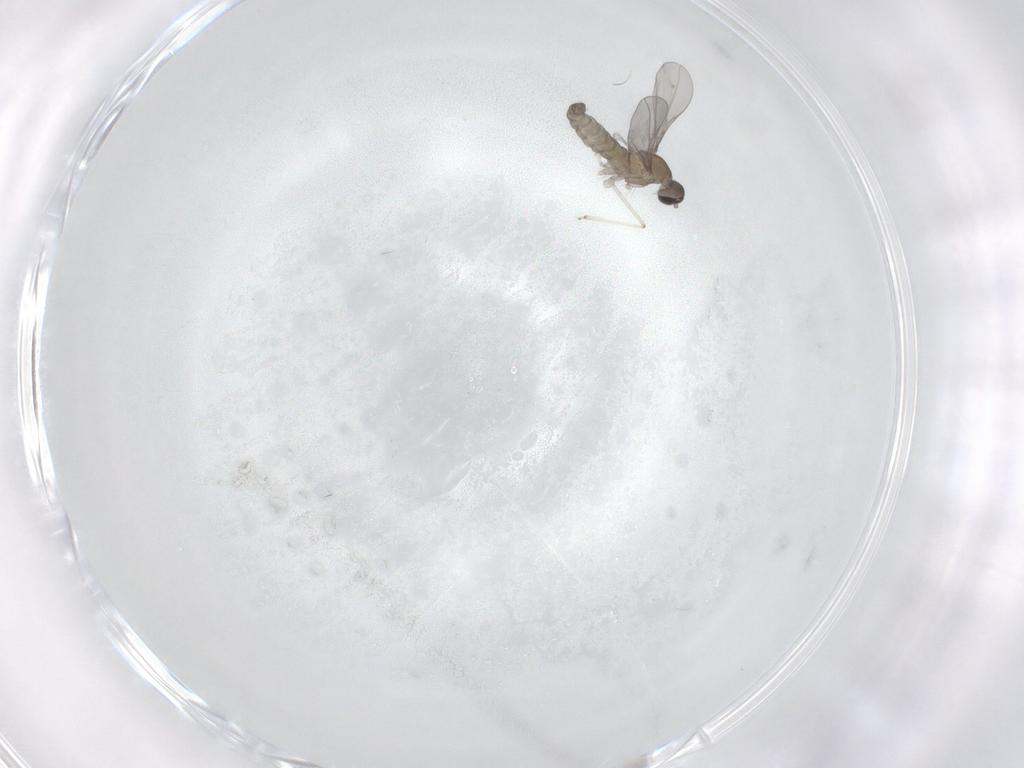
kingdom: Animalia
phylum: Arthropoda
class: Insecta
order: Diptera
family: Cecidomyiidae
